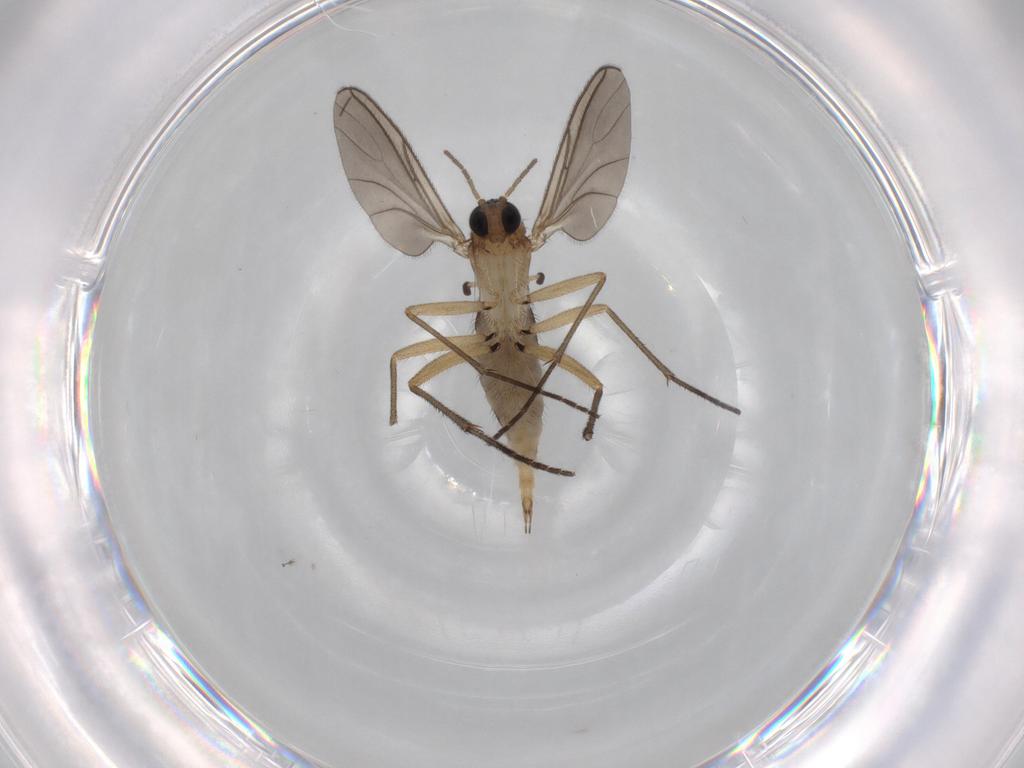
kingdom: Animalia
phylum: Arthropoda
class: Insecta
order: Diptera
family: Sciaridae
